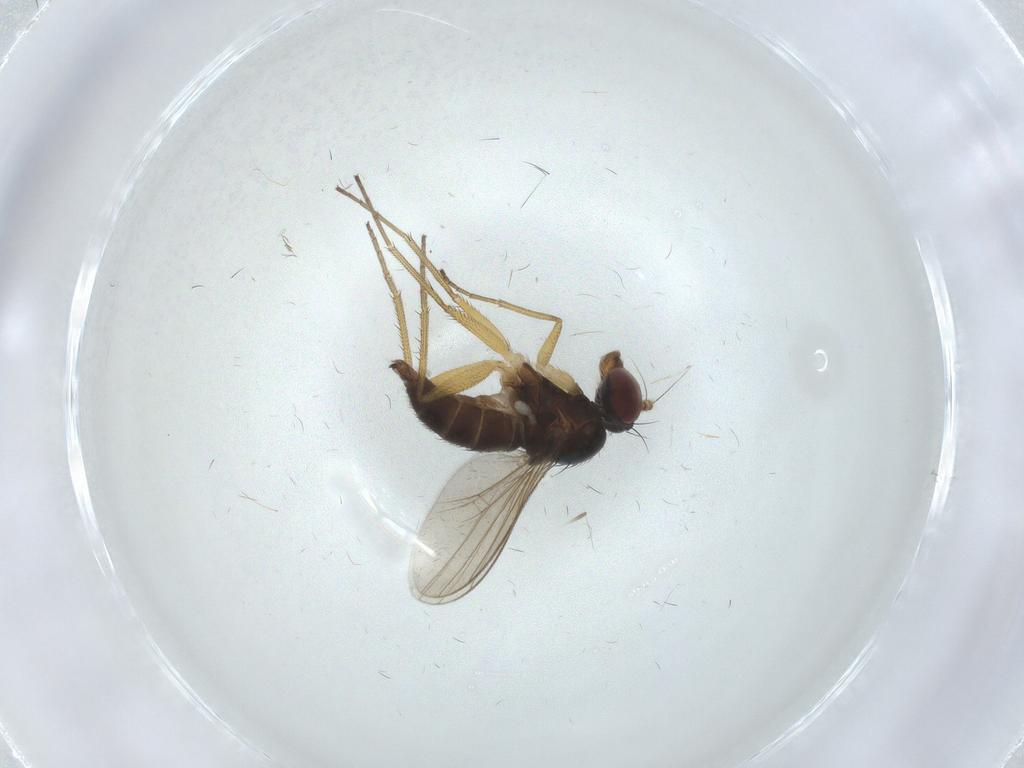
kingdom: Animalia
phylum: Arthropoda
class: Insecta
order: Diptera
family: Dolichopodidae
